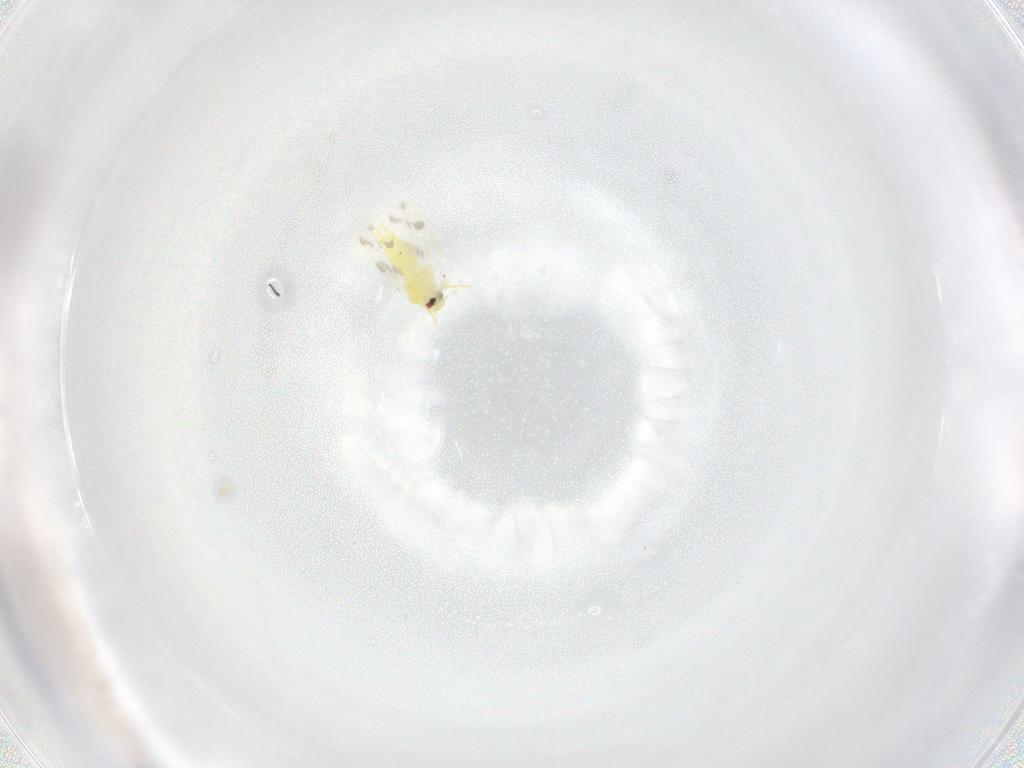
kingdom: Animalia
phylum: Arthropoda
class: Insecta
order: Hemiptera
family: Aleyrodidae
